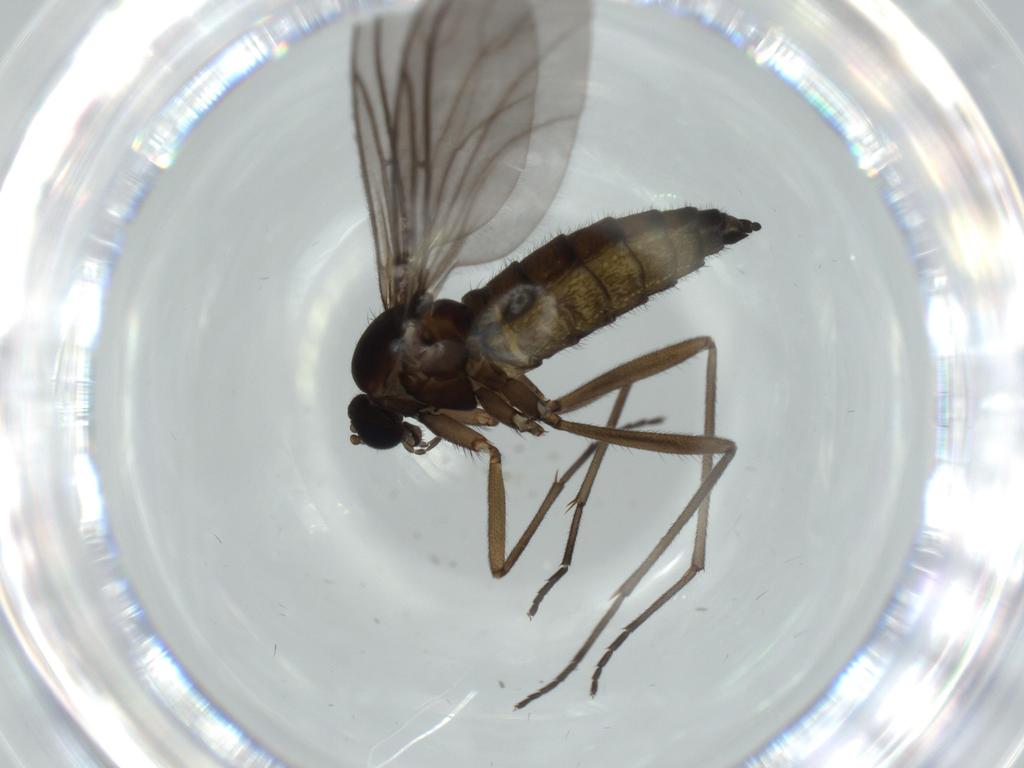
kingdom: Animalia
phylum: Arthropoda
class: Insecta
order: Diptera
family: Sciaridae
